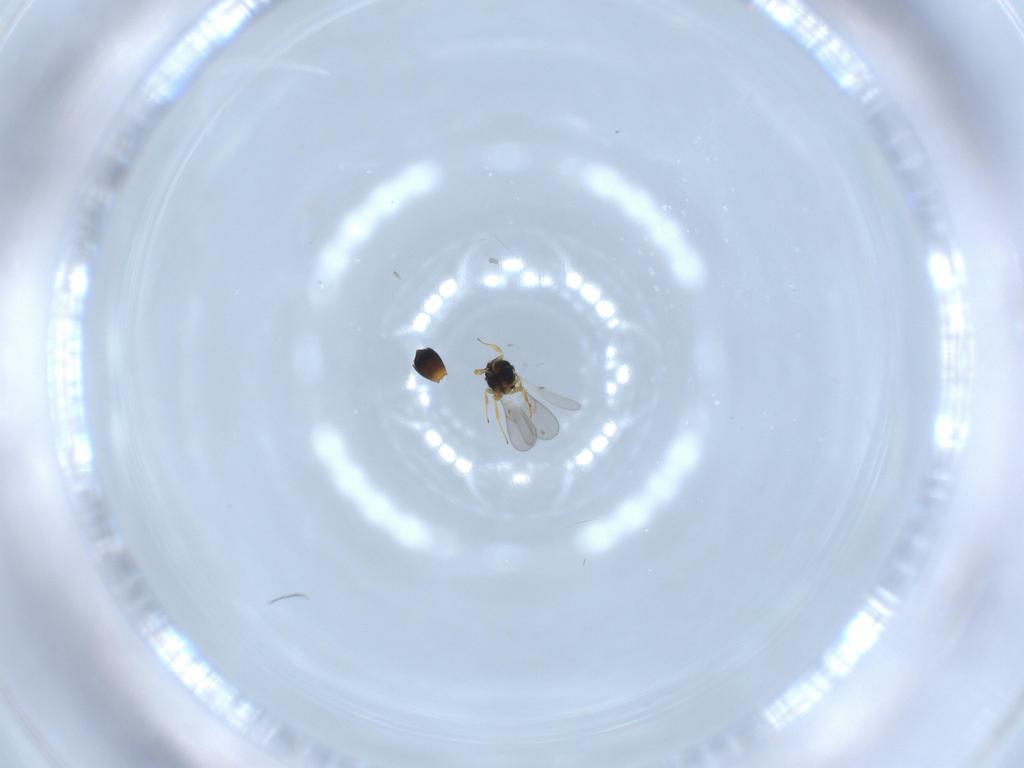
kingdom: Animalia
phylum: Arthropoda
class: Insecta
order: Hymenoptera
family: Scelionidae
